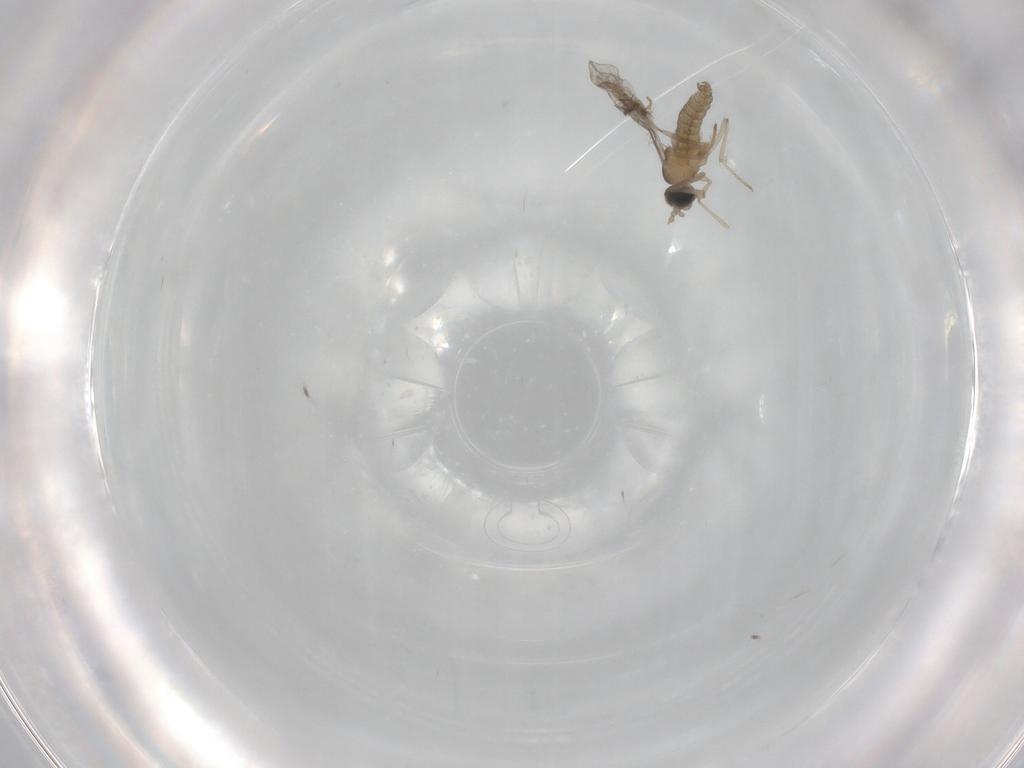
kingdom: Animalia
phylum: Arthropoda
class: Insecta
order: Diptera
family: Cecidomyiidae
